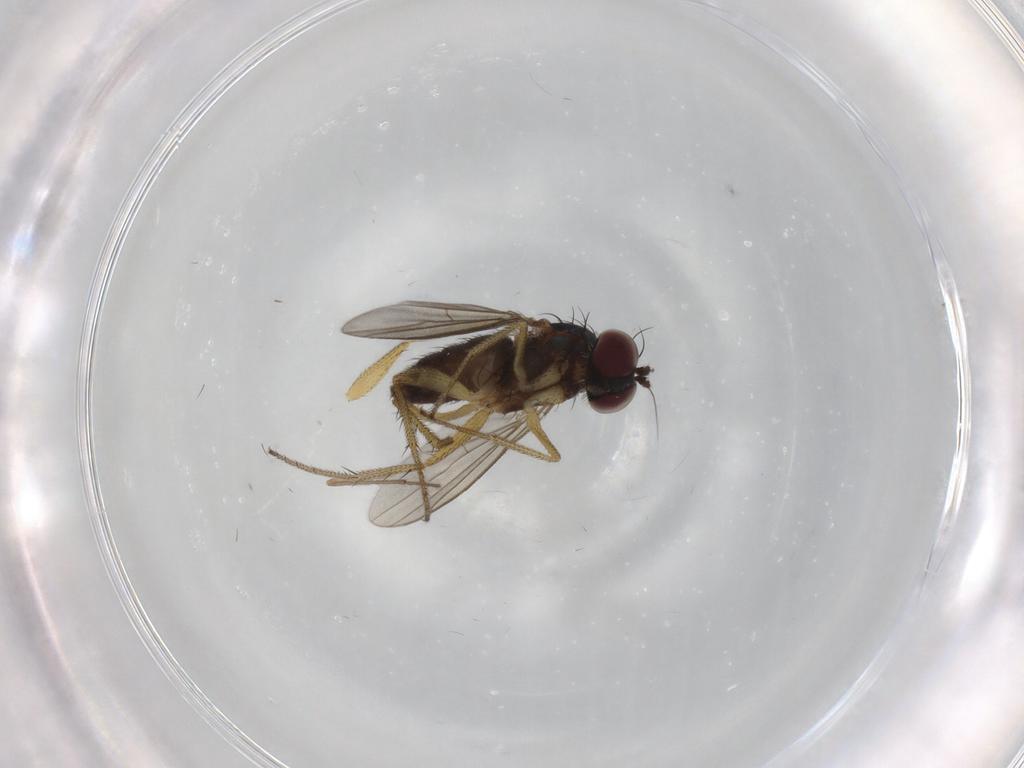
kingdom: Animalia
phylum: Arthropoda
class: Insecta
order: Diptera
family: Dolichopodidae
